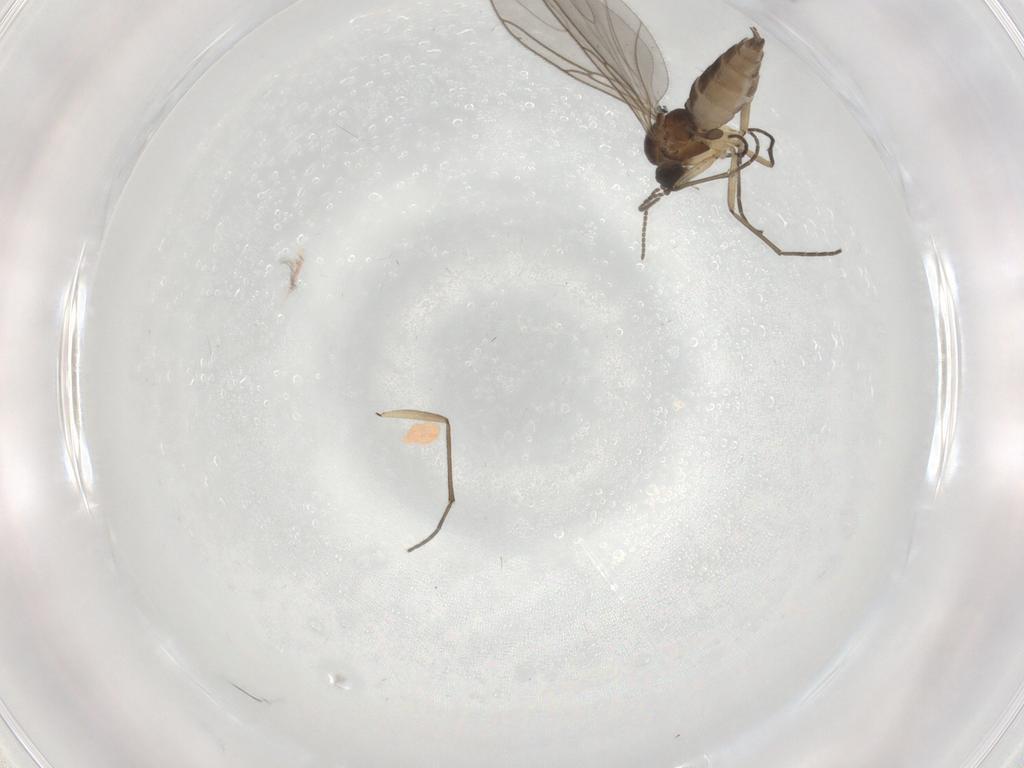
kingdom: Animalia
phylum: Arthropoda
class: Insecta
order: Diptera
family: Sciaridae
